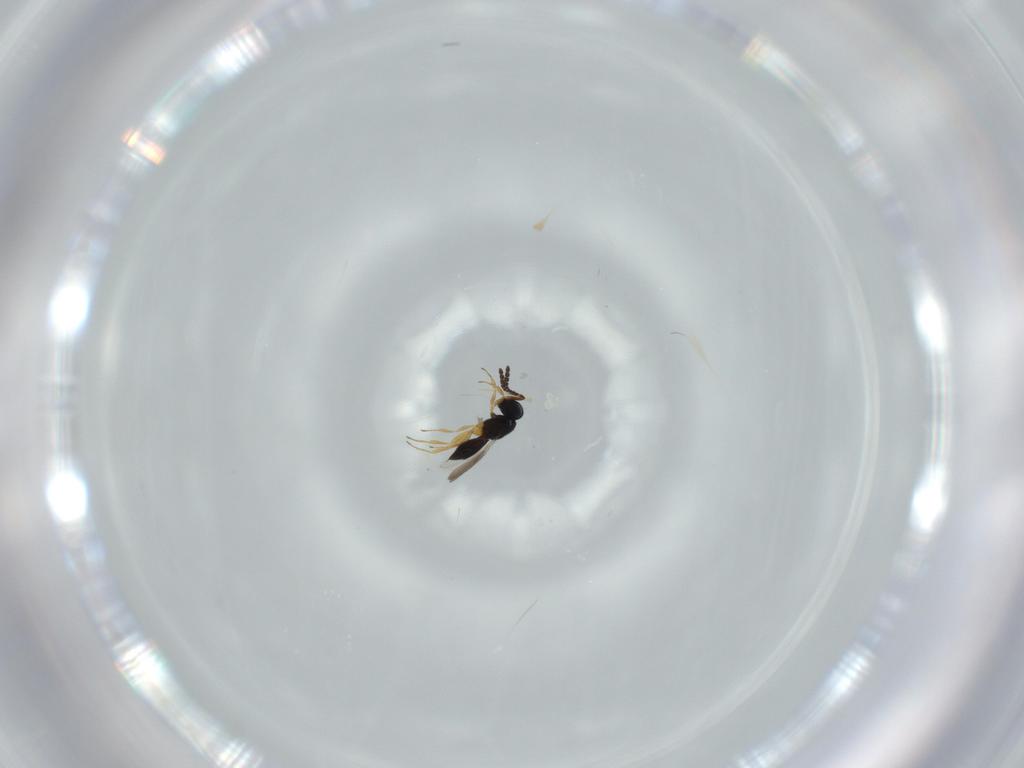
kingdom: Animalia
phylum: Arthropoda
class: Insecta
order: Hymenoptera
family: Scelionidae
